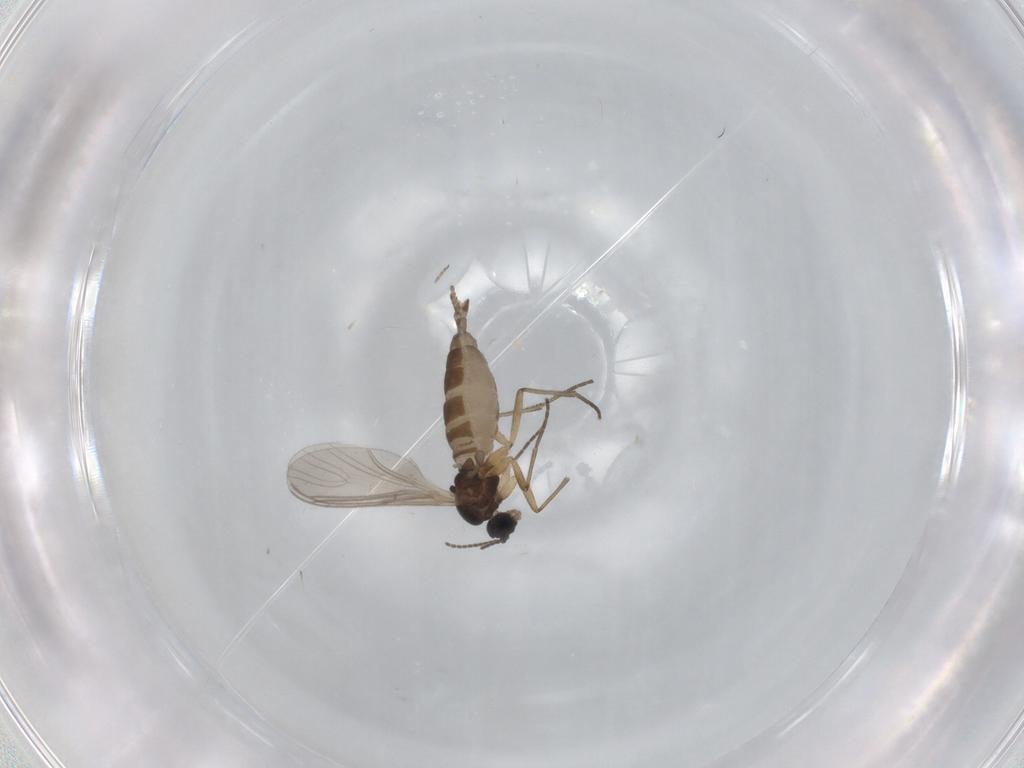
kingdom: Animalia
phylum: Arthropoda
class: Insecta
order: Diptera
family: Sciaridae
